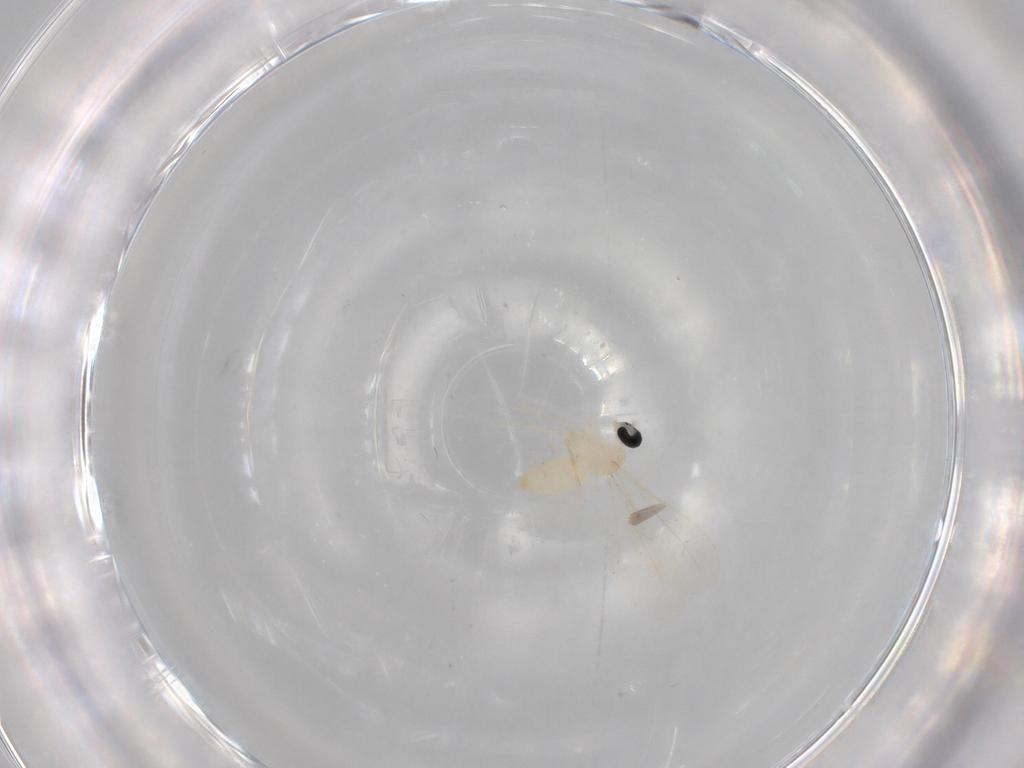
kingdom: Animalia
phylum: Arthropoda
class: Insecta
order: Diptera
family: Cecidomyiidae
